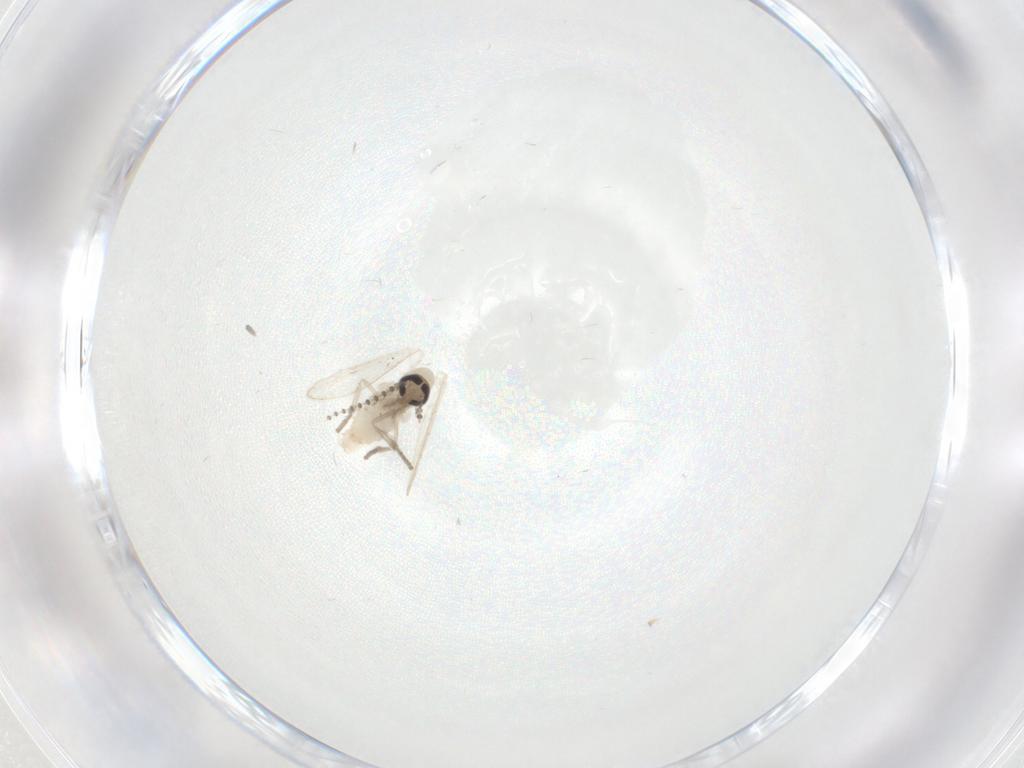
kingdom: Animalia
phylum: Arthropoda
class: Insecta
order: Diptera
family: Psychodidae
